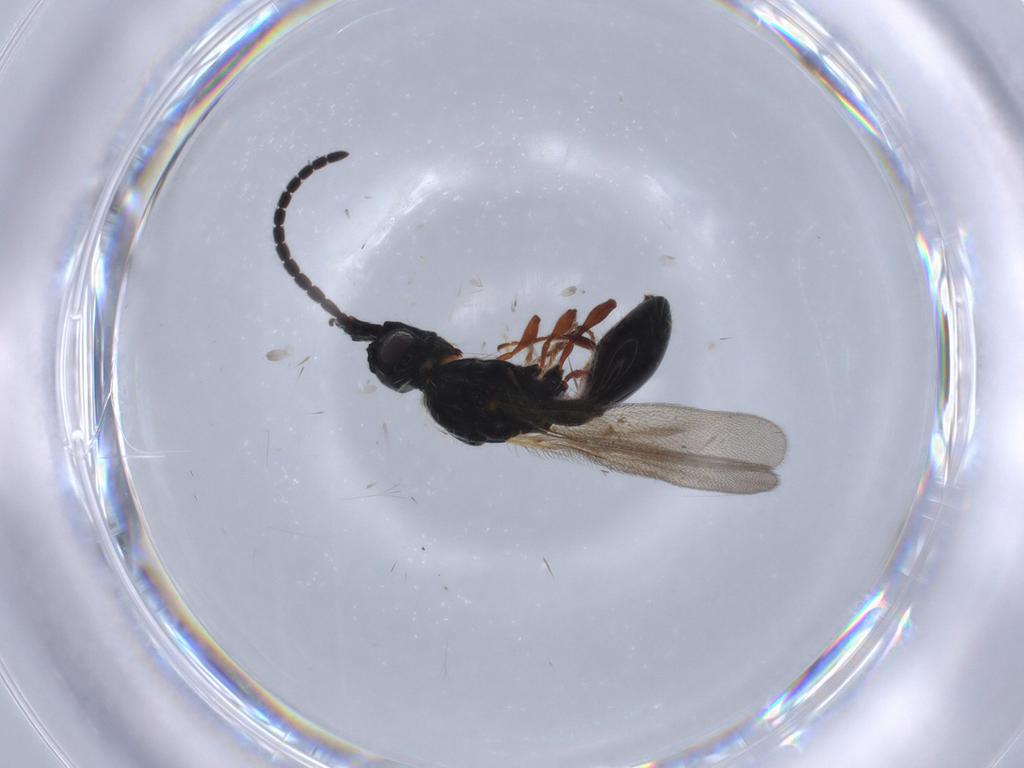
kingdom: Animalia
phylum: Arthropoda
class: Insecta
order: Hymenoptera
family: Diapriidae
